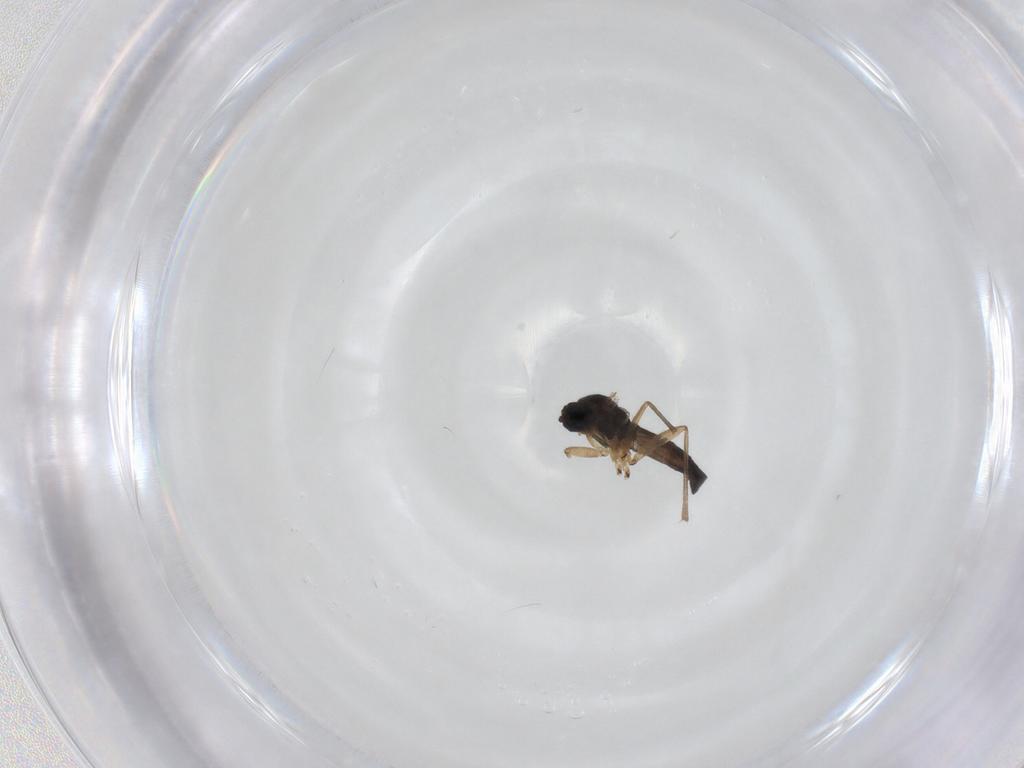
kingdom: Animalia
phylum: Arthropoda
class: Insecta
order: Diptera
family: Sciaridae
